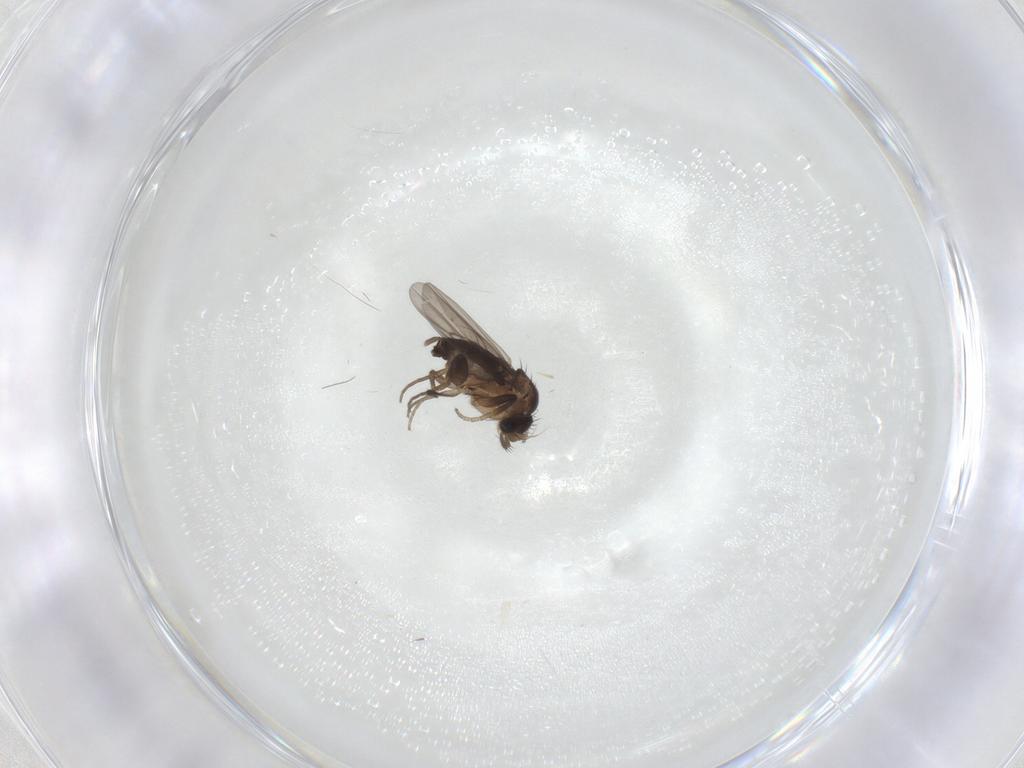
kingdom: Animalia
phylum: Arthropoda
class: Insecta
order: Diptera
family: Phoridae
